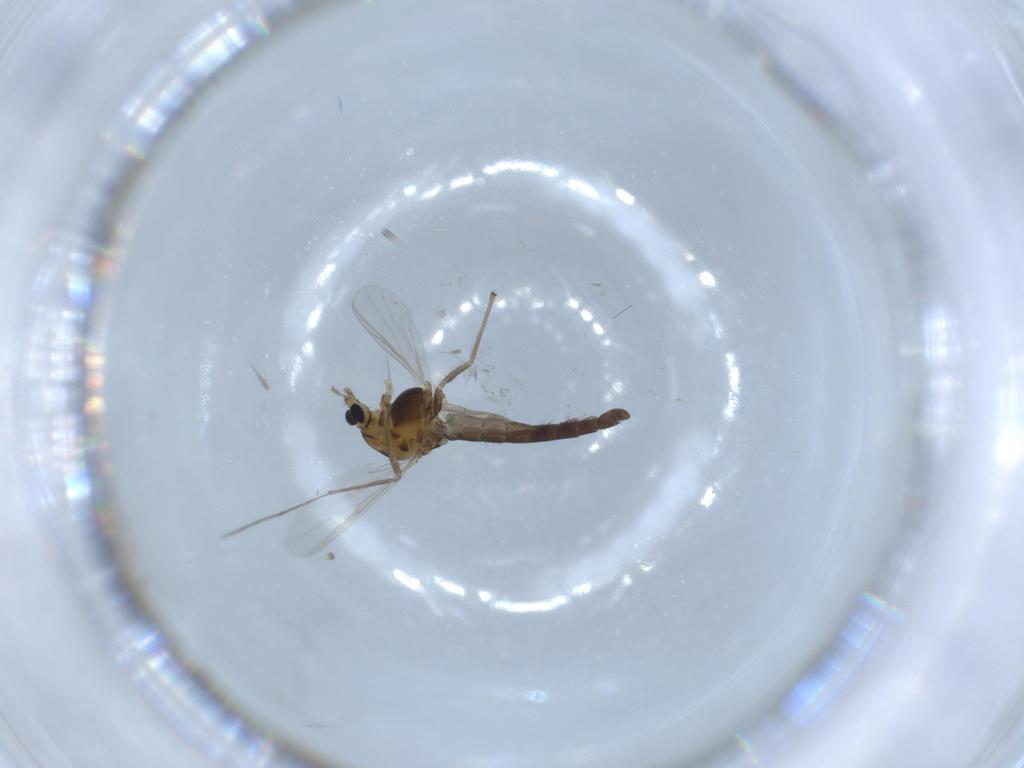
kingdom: Animalia
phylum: Arthropoda
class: Insecta
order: Diptera
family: Chironomidae
